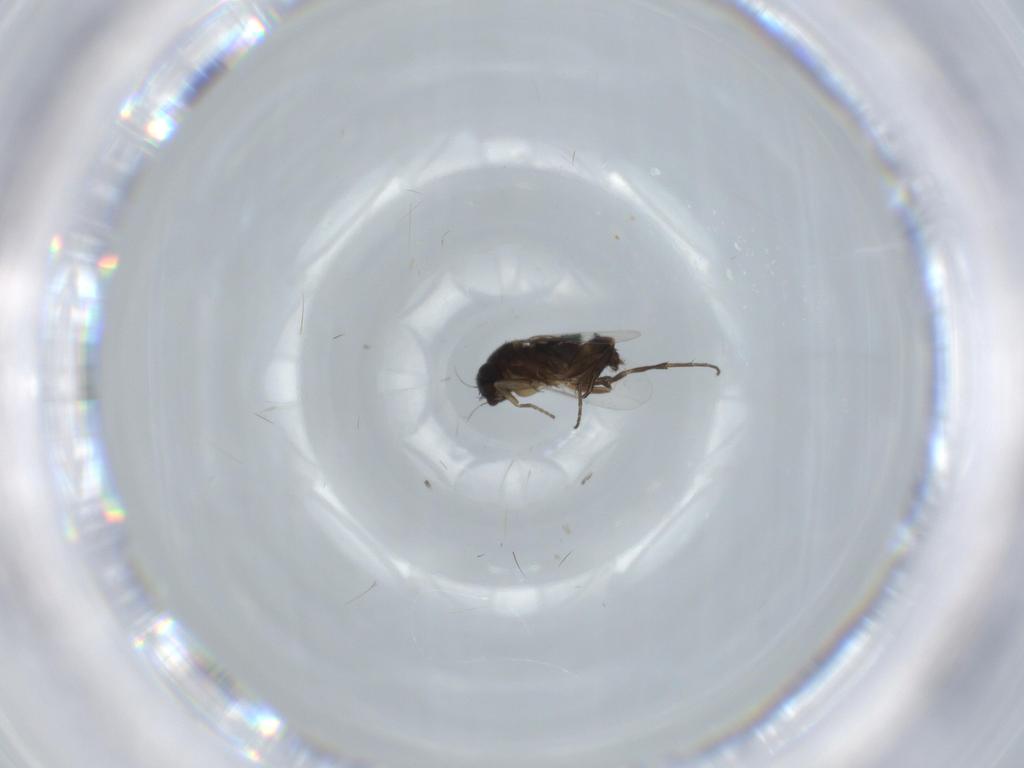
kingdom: Animalia
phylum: Arthropoda
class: Insecta
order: Diptera
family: Phoridae
